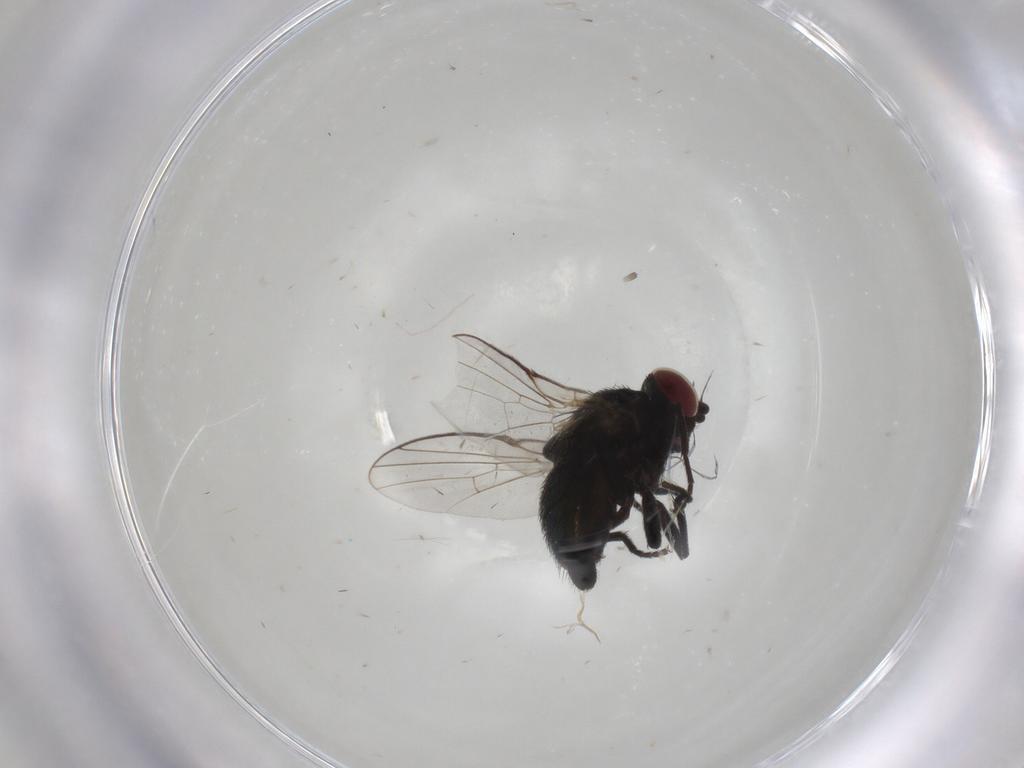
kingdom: Animalia
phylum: Arthropoda
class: Insecta
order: Diptera
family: Agromyzidae
